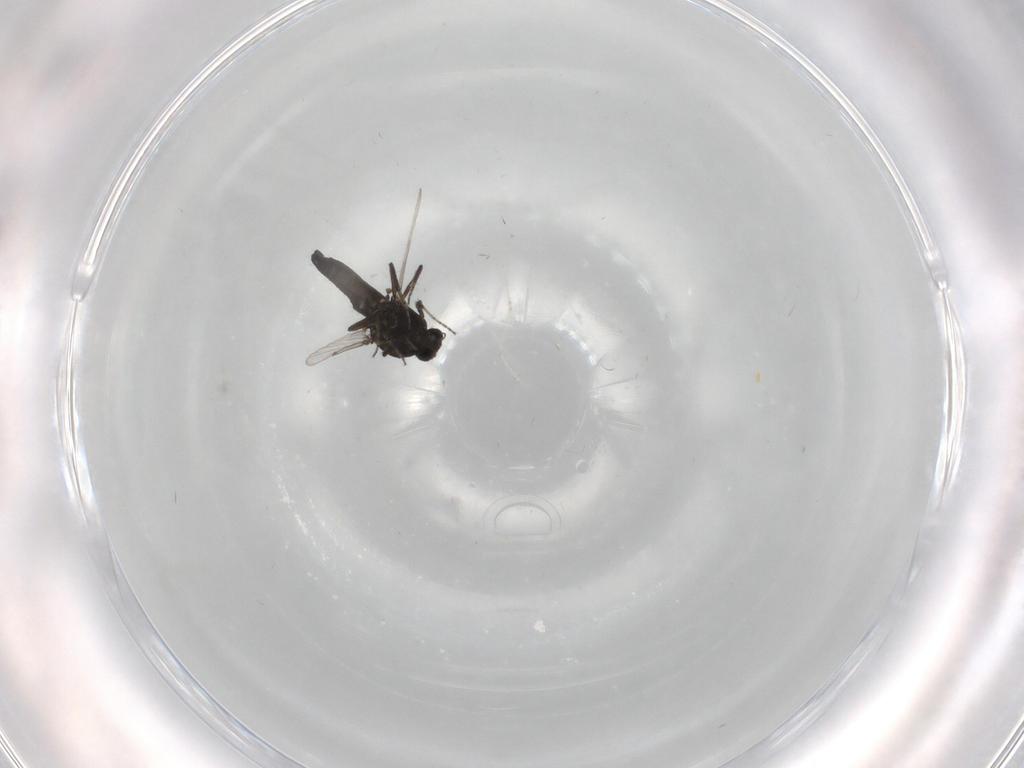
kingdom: Animalia
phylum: Arthropoda
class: Insecta
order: Diptera
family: Cecidomyiidae
